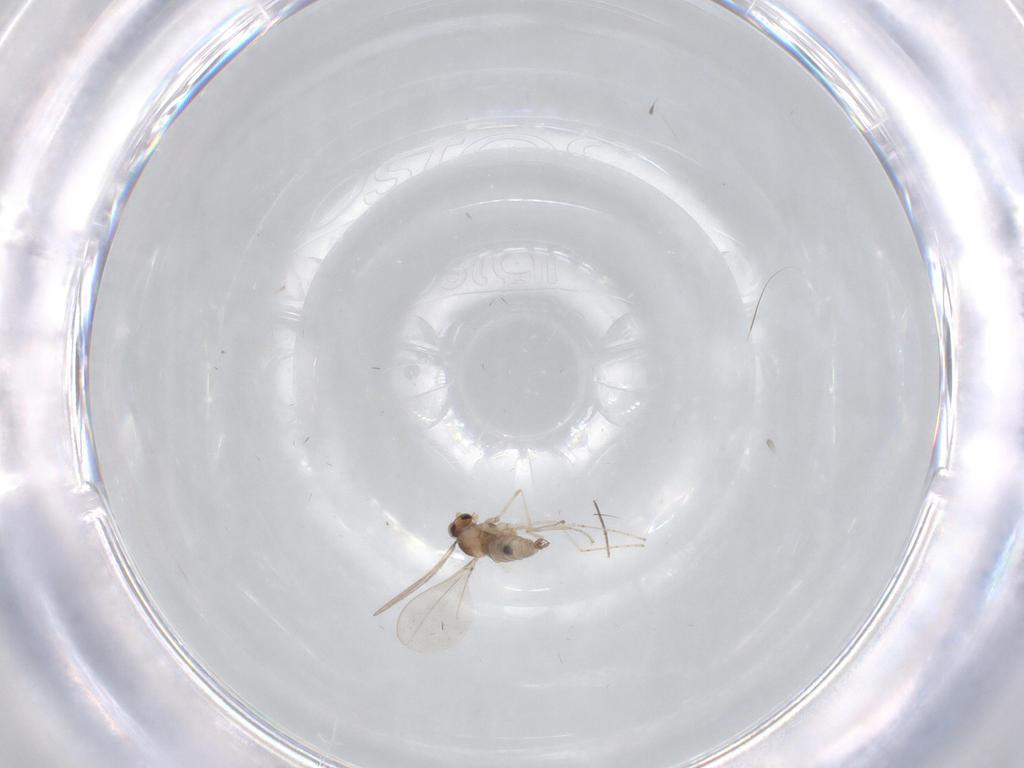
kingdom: Animalia
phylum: Arthropoda
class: Insecta
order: Diptera
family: Cecidomyiidae
